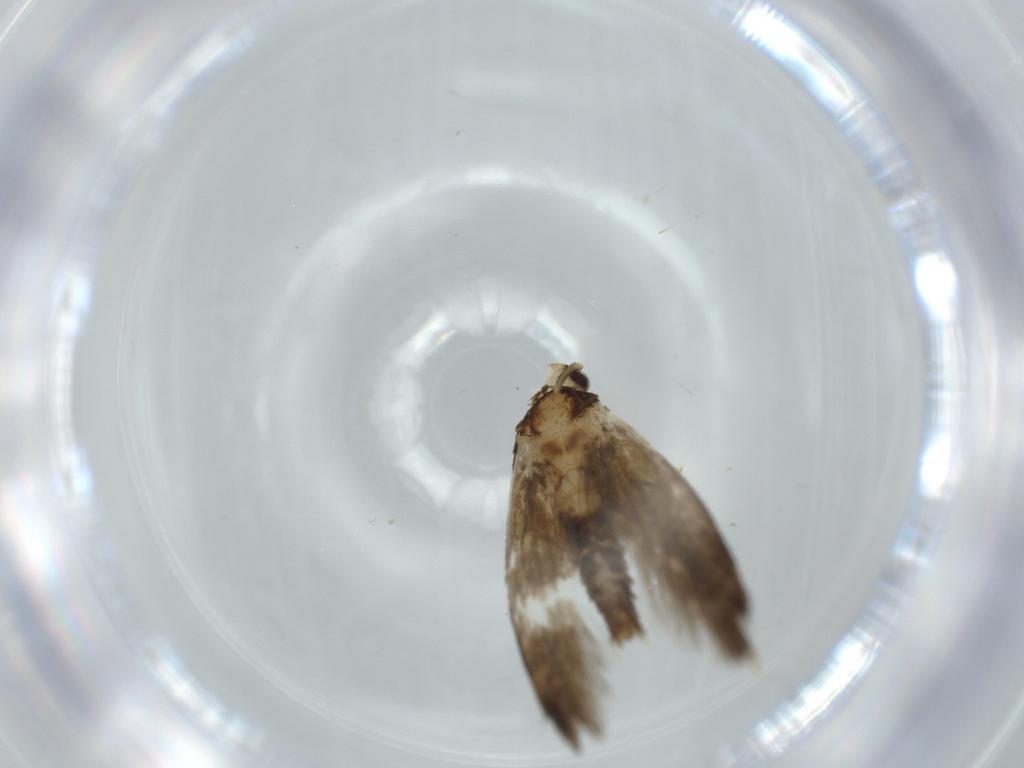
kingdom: Animalia
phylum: Arthropoda
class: Insecta
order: Lepidoptera
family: Tineidae
